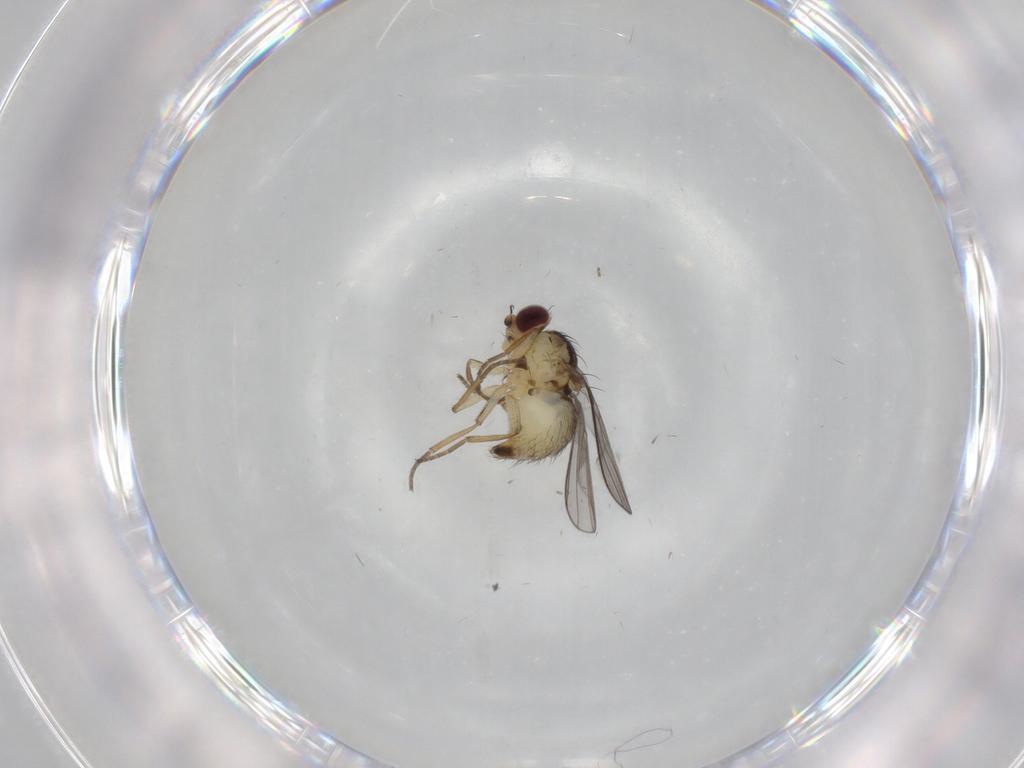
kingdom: Animalia
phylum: Arthropoda
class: Insecta
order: Diptera
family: Agromyzidae
